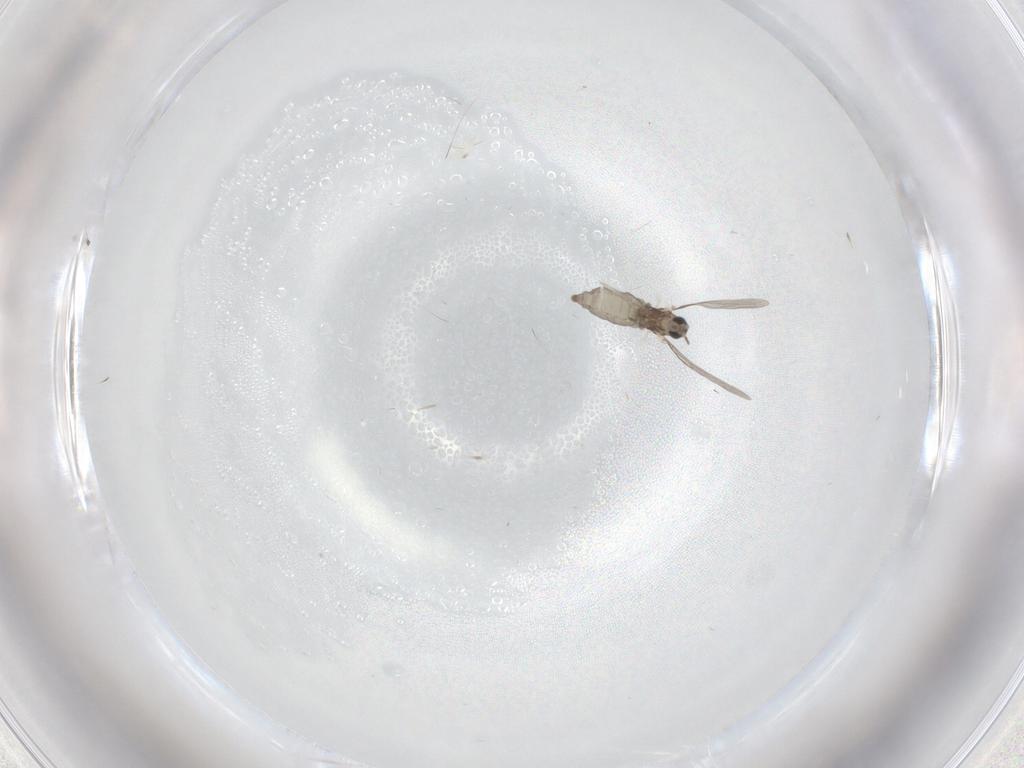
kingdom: Animalia
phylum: Arthropoda
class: Insecta
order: Diptera
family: Cecidomyiidae
